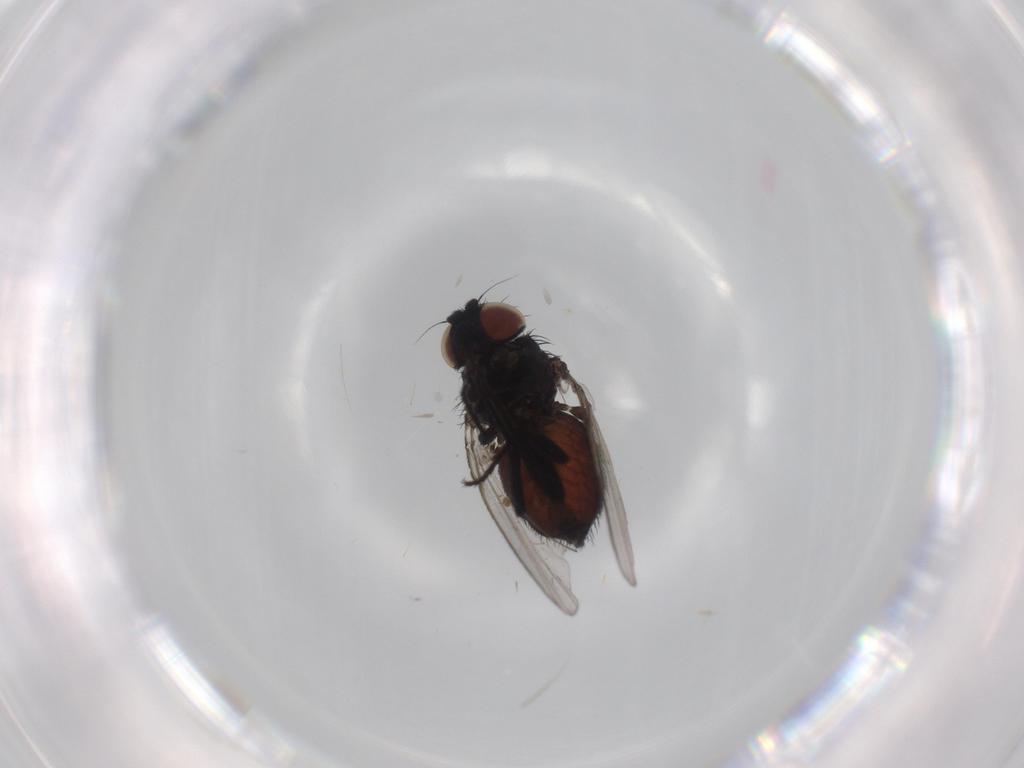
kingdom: Animalia
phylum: Arthropoda
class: Insecta
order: Diptera
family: Milichiidae
